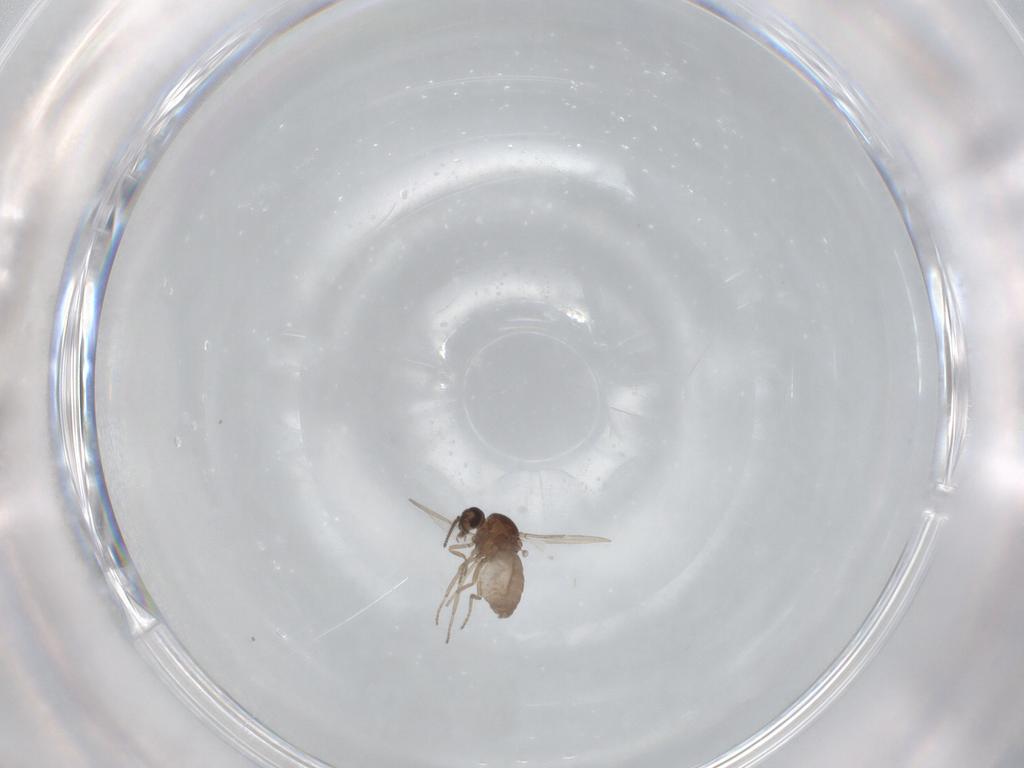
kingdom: Animalia
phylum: Arthropoda
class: Insecta
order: Diptera
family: Ceratopogonidae
